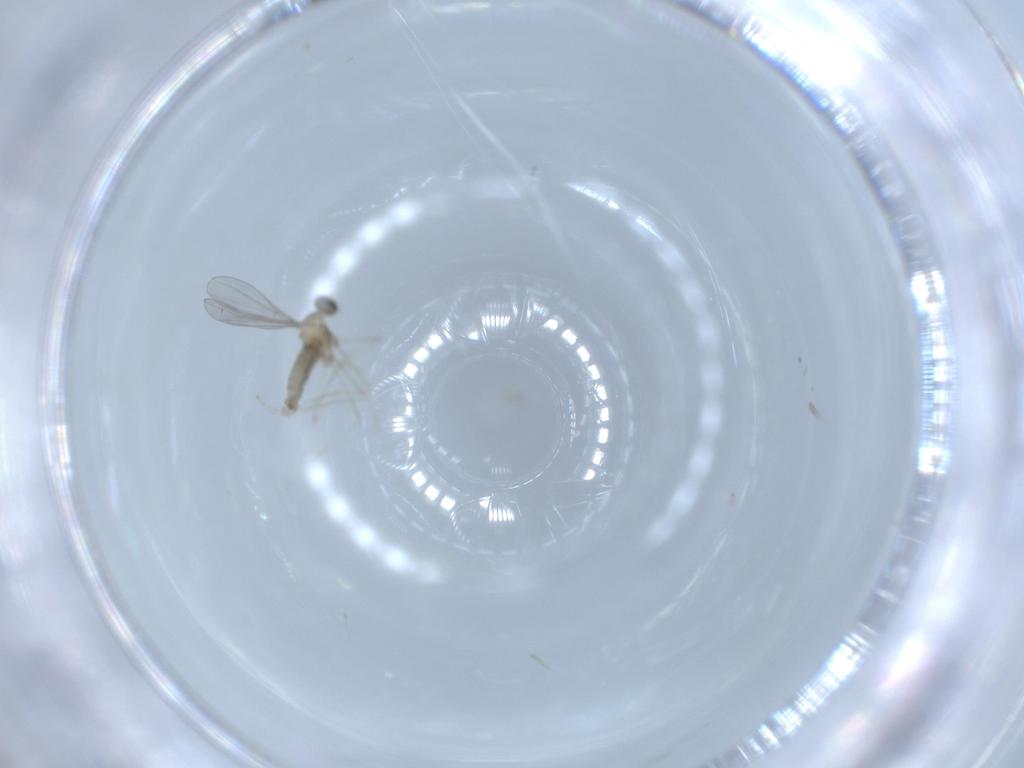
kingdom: Animalia
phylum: Arthropoda
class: Insecta
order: Diptera
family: Cecidomyiidae
